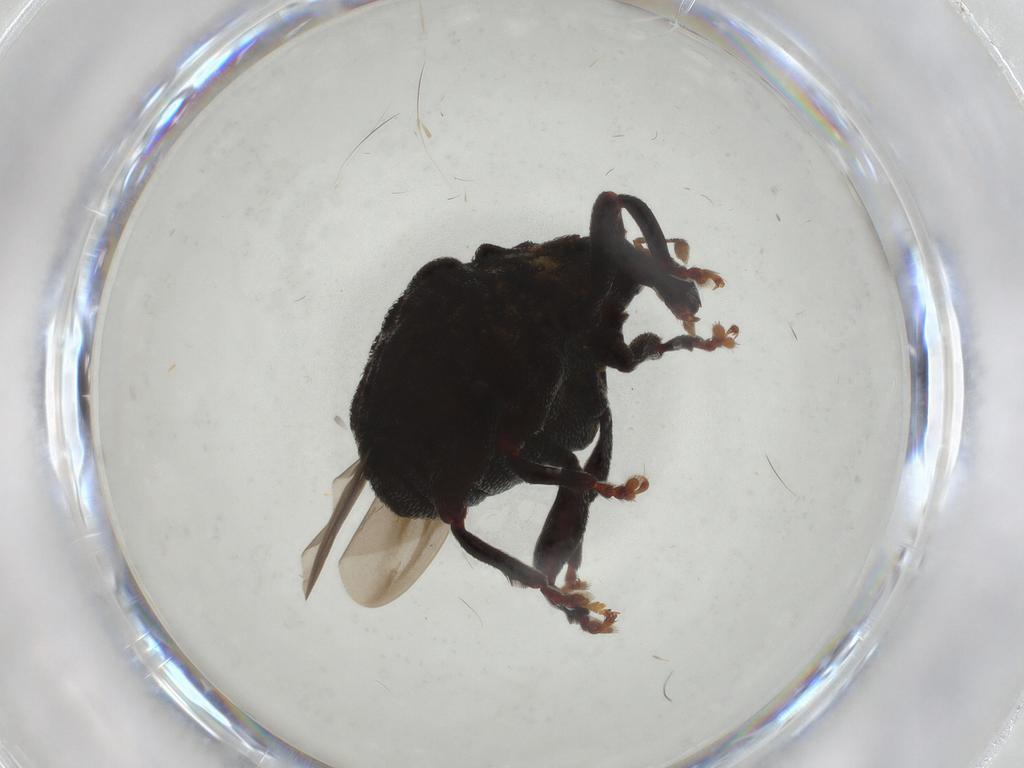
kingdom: Animalia
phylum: Arthropoda
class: Insecta
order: Coleoptera
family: Curculionidae
